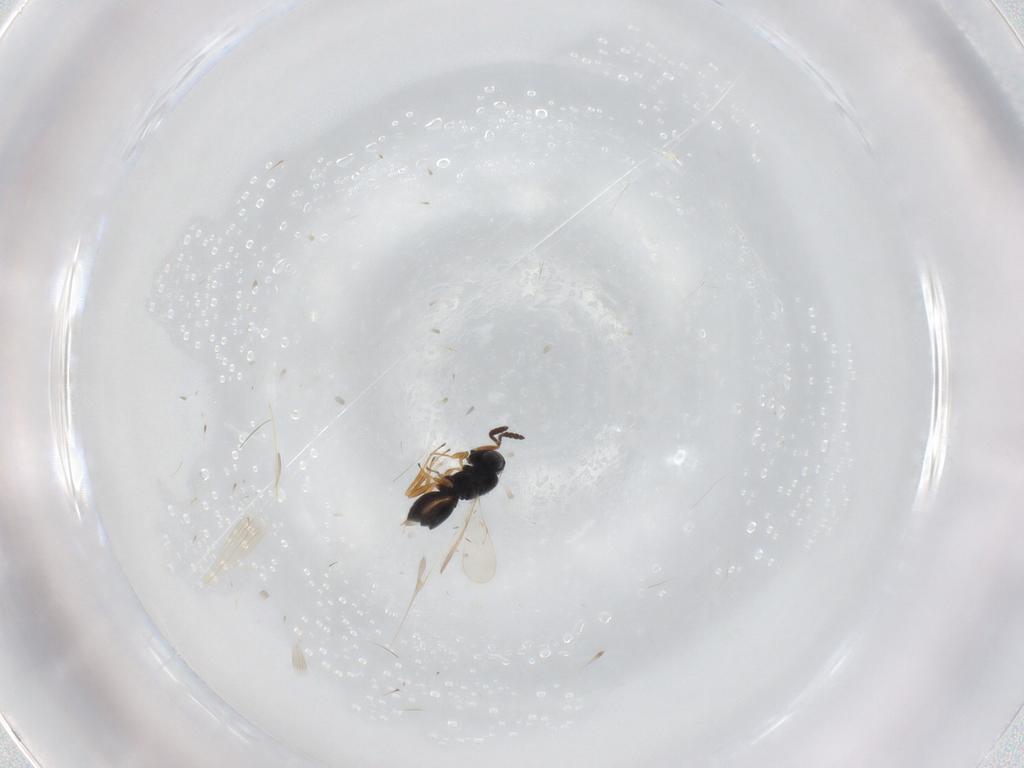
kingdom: Animalia
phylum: Arthropoda
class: Insecta
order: Hymenoptera
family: Scelionidae
